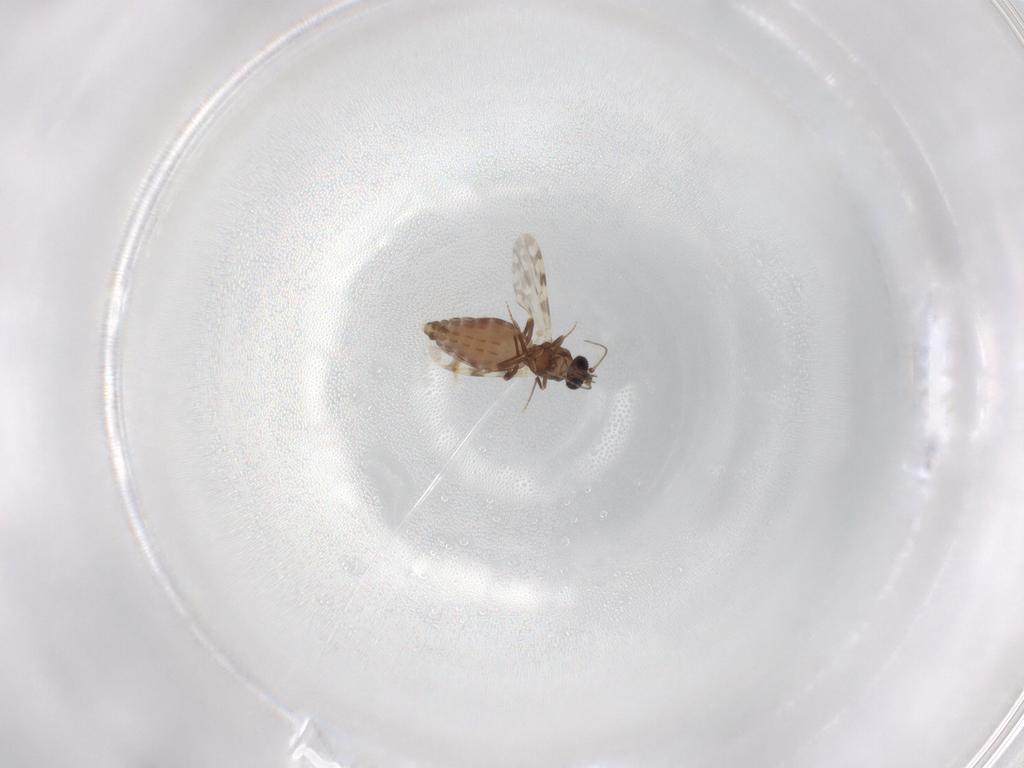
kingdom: Animalia
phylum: Arthropoda
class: Insecta
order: Diptera
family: Ceratopogonidae
